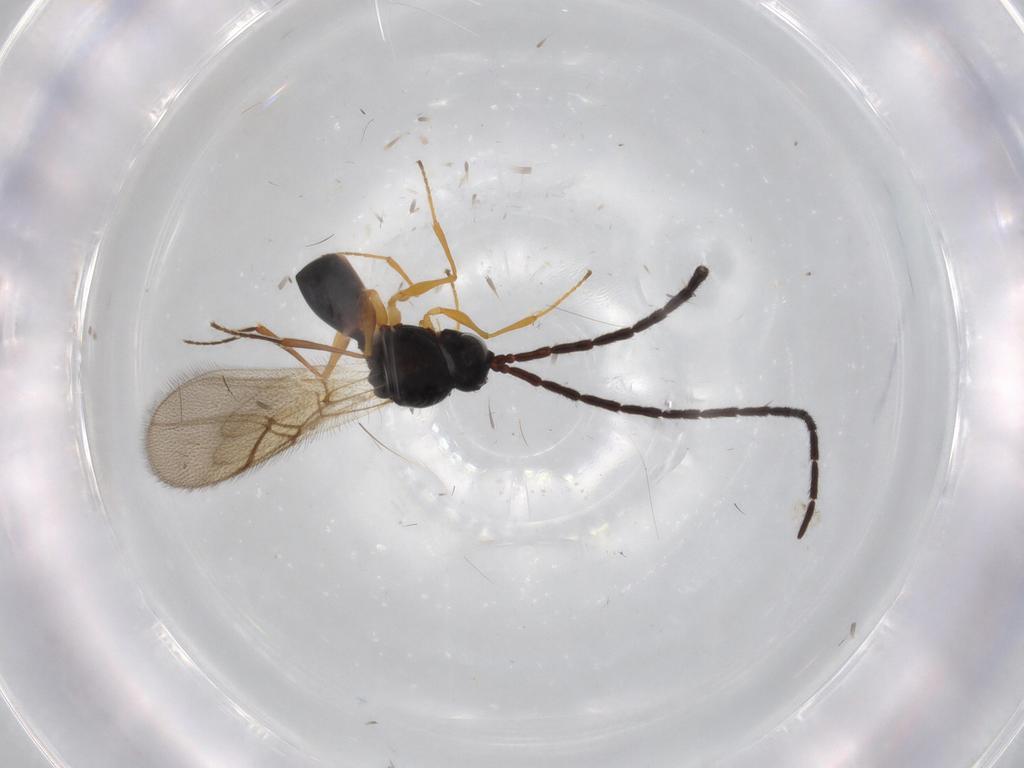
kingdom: Animalia
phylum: Arthropoda
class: Insecta
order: Hymenoptera
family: Figitidae
